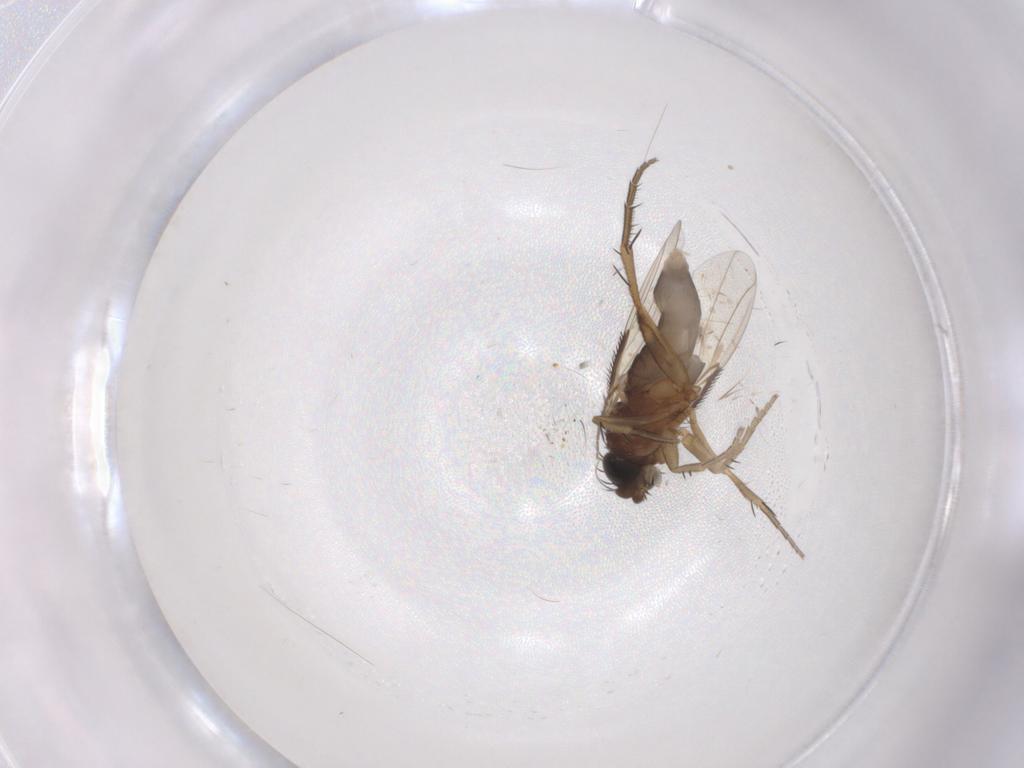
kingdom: Animalia
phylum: Arthropoda
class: Insecta
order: Diptera
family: Phoridae
